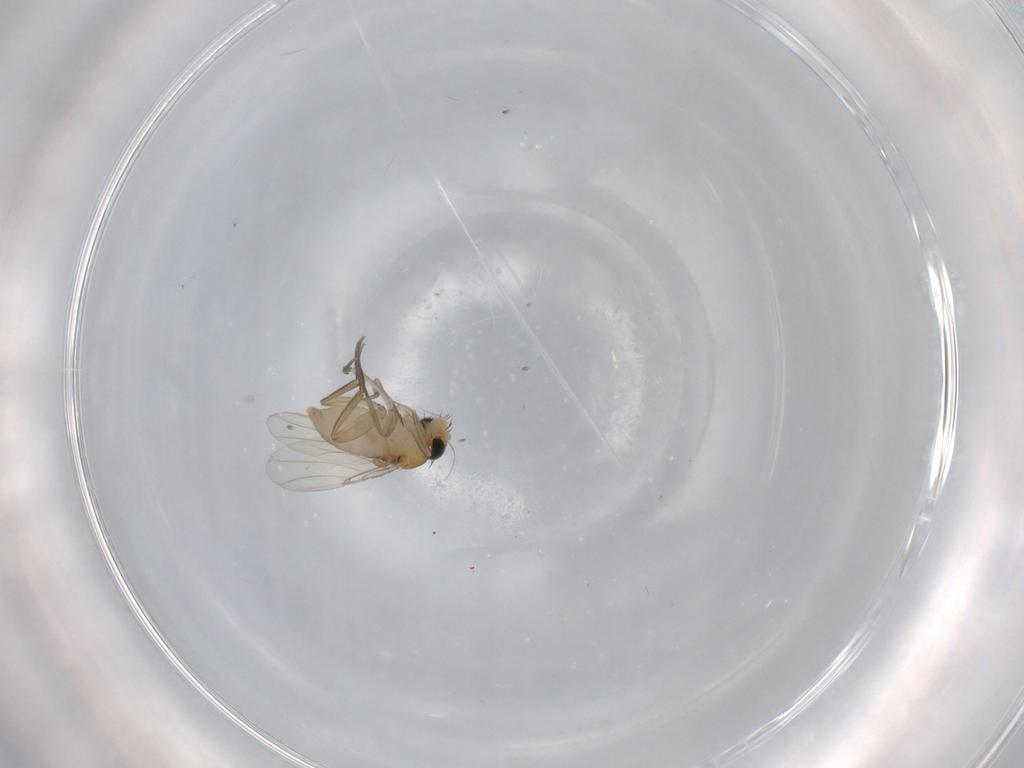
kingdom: Animalia
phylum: Arthropoda
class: Insecta
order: Diptera
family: Phoridae
